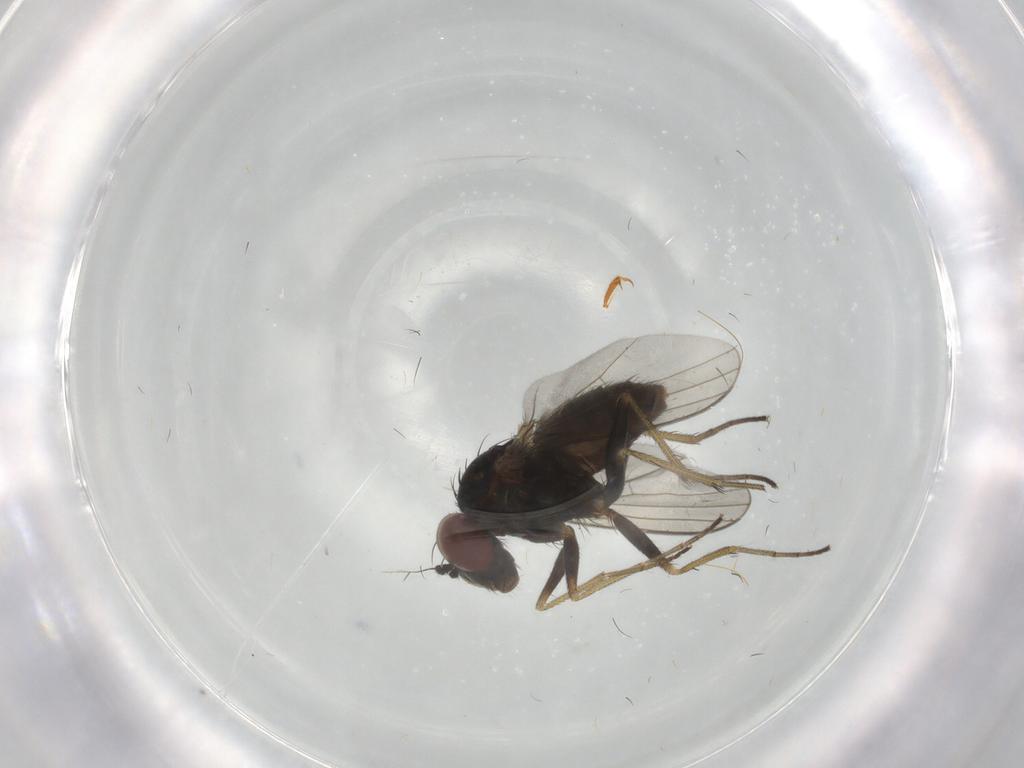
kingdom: Animalia
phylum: Arthropoda
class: Insecta
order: Diptera
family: Dolichopodidae
